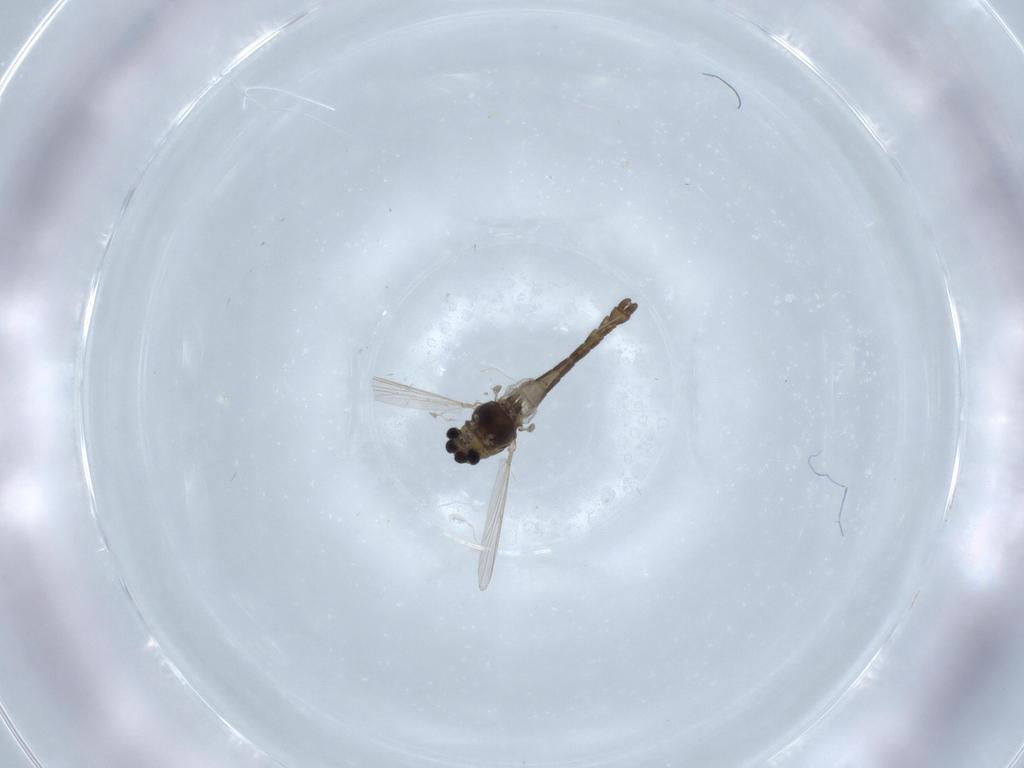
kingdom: Animalia
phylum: Arthropoda
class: Insecta
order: Diptera
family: Chironomidae
